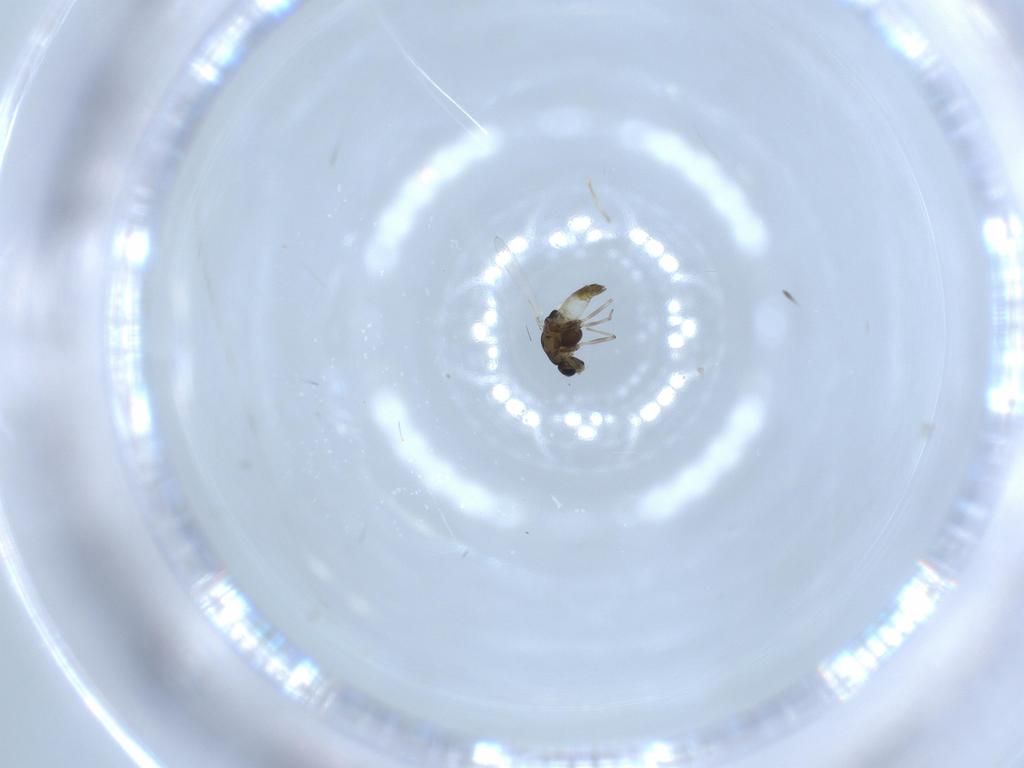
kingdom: Animalia
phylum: Arthropoda
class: Insecta
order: Diptera
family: Chironomidae
